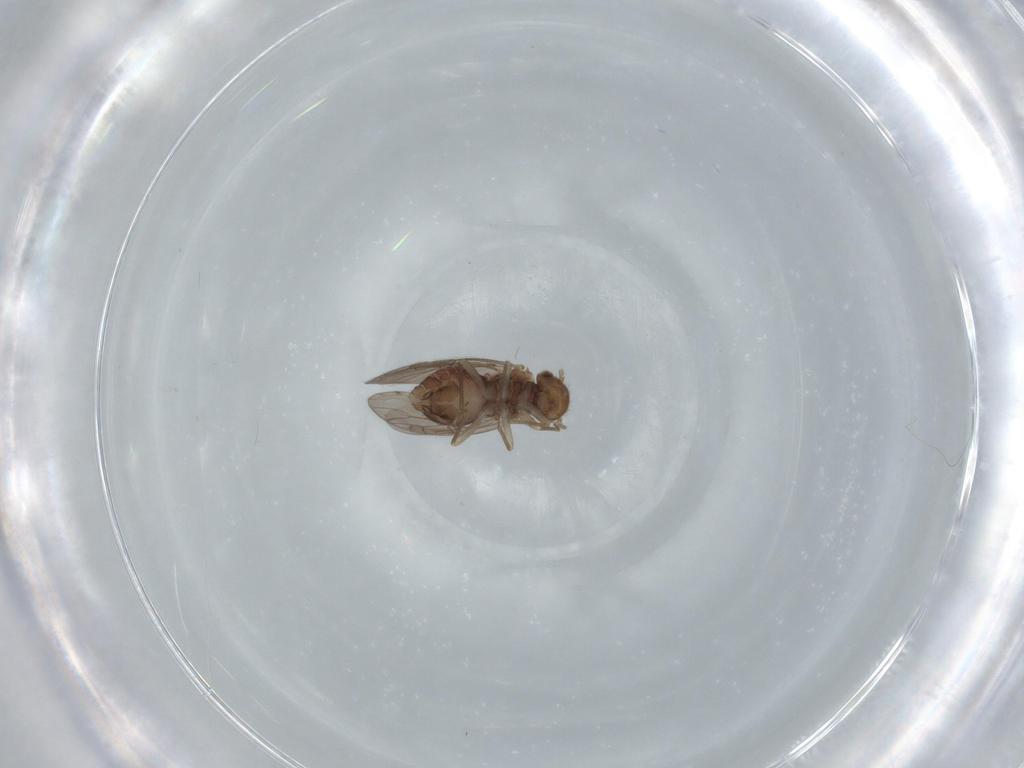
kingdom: Animalia
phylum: Arthropoda
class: Insecta
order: Psocodea
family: Ectopsocidae
